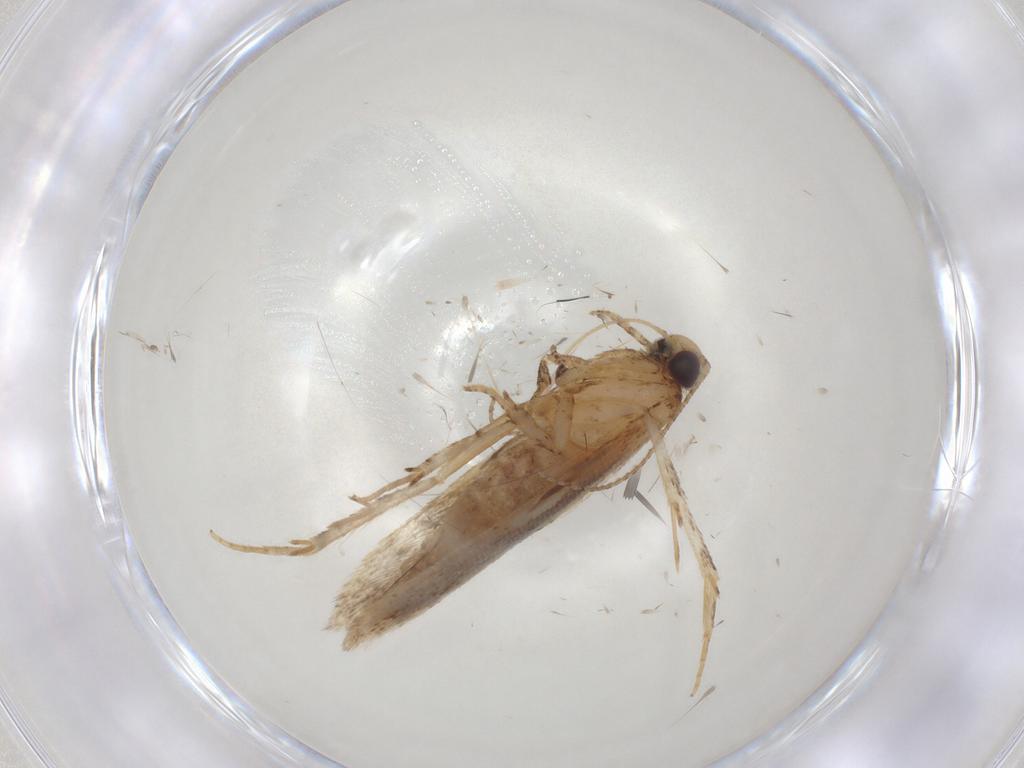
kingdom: Animalia
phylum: Arthropoda
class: Insecta
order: Lepidoptera
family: Gelechiidae
